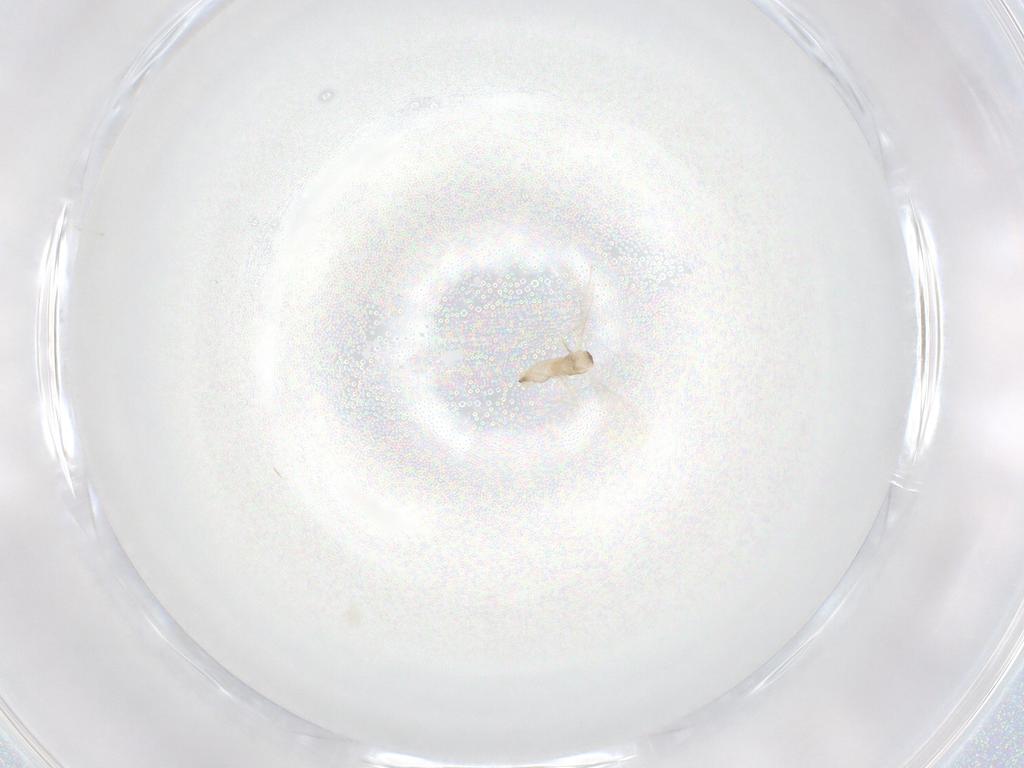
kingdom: Animalia
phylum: Arthropoda
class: Insecta
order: Diptera
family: Cecidomyiidae
